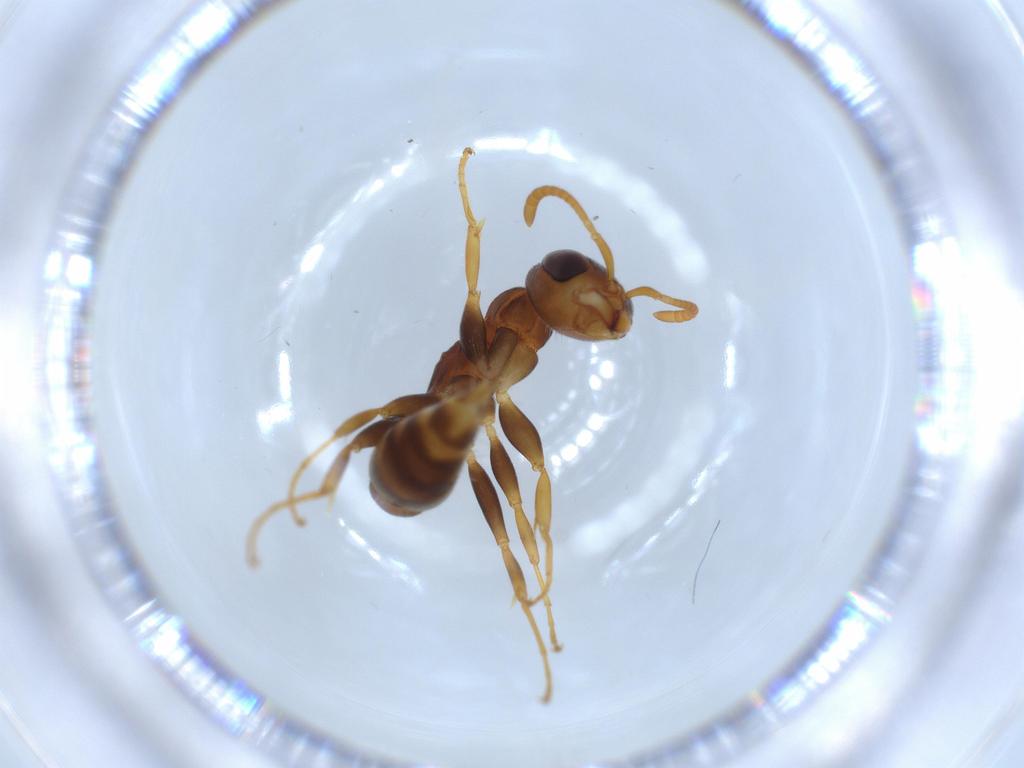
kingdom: Animalia
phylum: Arthropoda
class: Insecta
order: Hymenoptera
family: Formicidae
